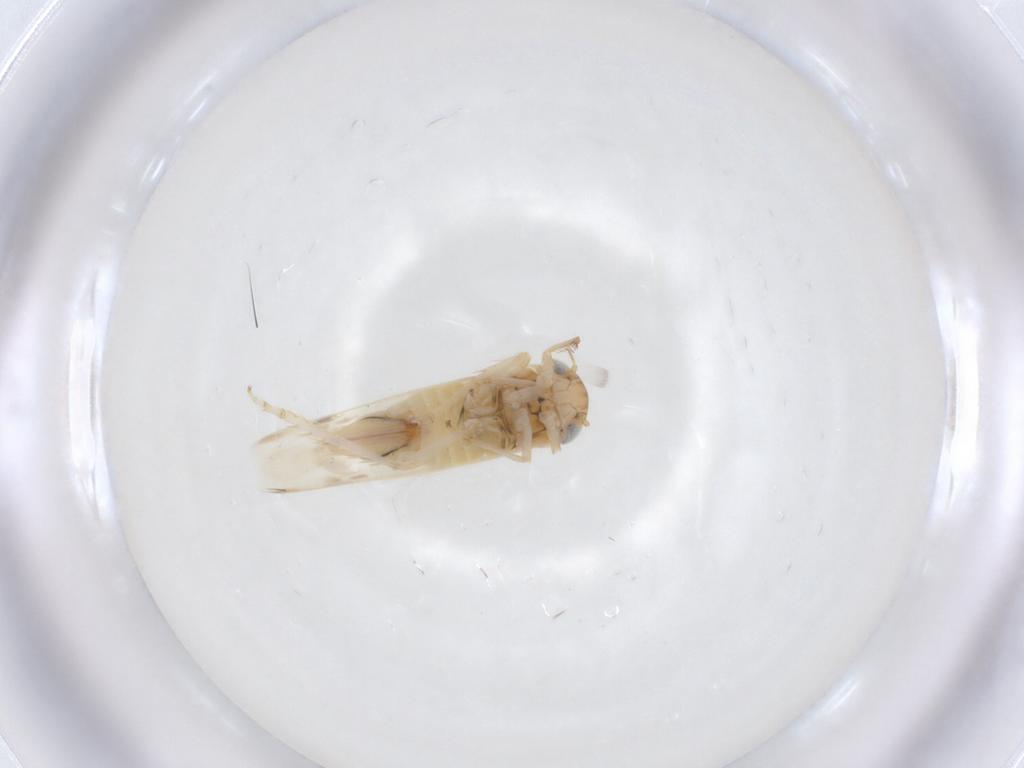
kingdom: Animalia
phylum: Arthropoda
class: Insecta
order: Hemiptera
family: Cicadellidae
